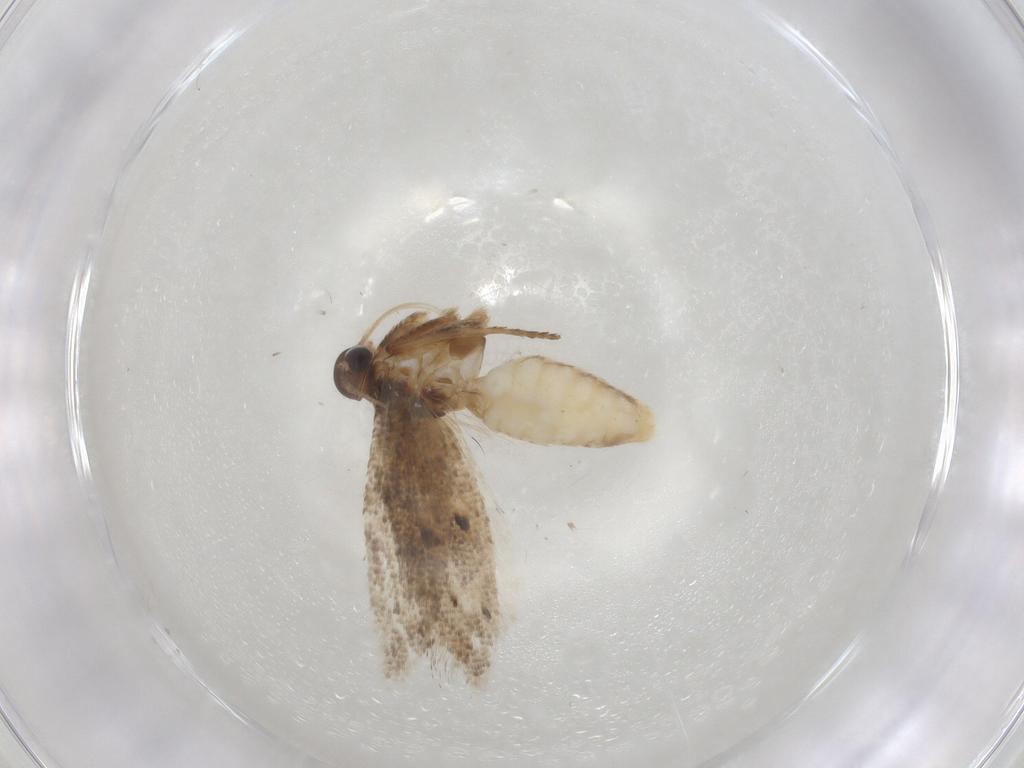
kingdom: Animalia
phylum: Arthropoda
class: Insecta
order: Lepidoptera
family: Gelechiidae
